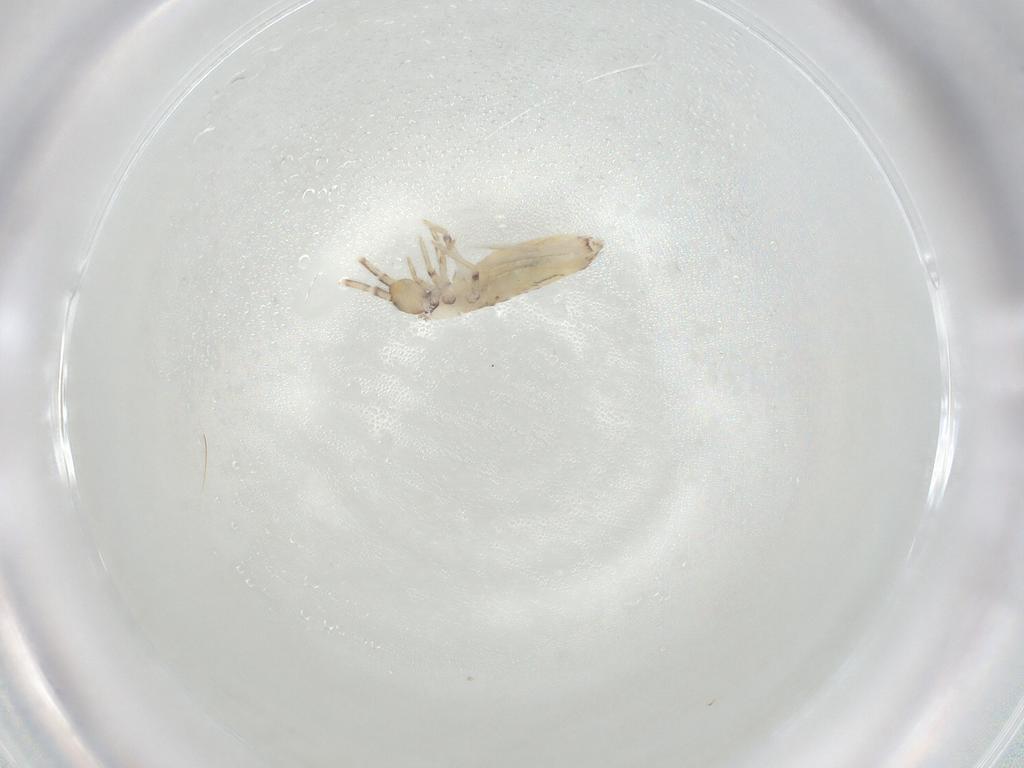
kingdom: Animalia
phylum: Arthropoda
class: Collembola
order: Entomobryomorpha
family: Entomobryidae
